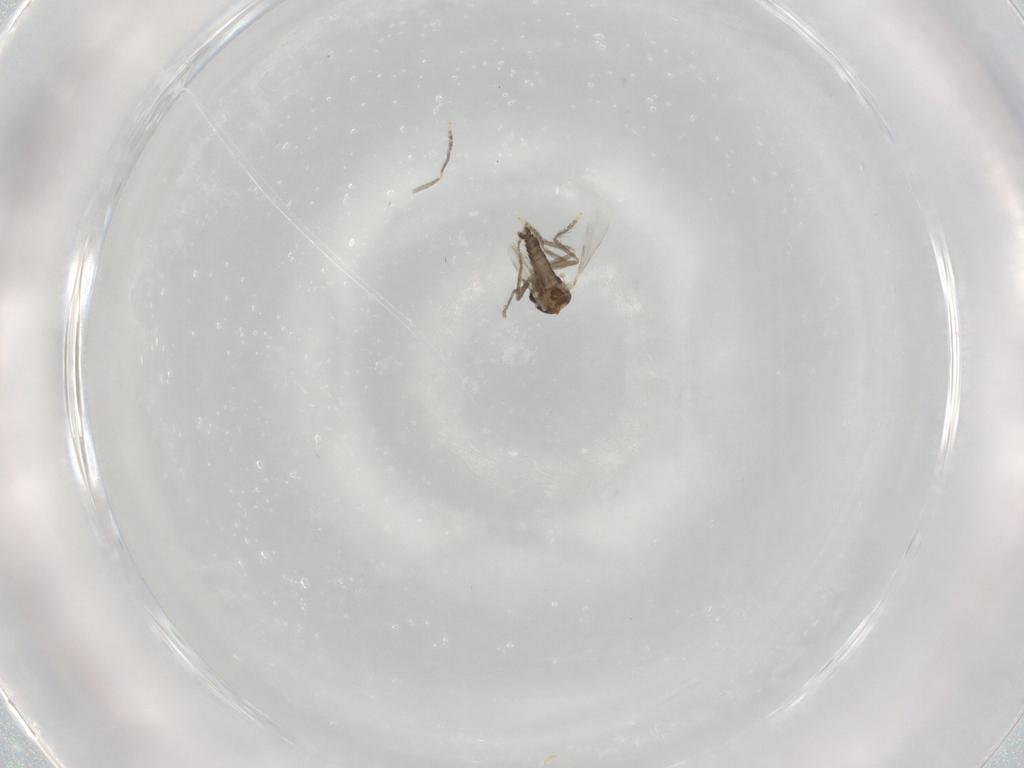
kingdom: Animalia
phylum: Arthropoda
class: Insecta
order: Diptera
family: Ceratopogonidae
